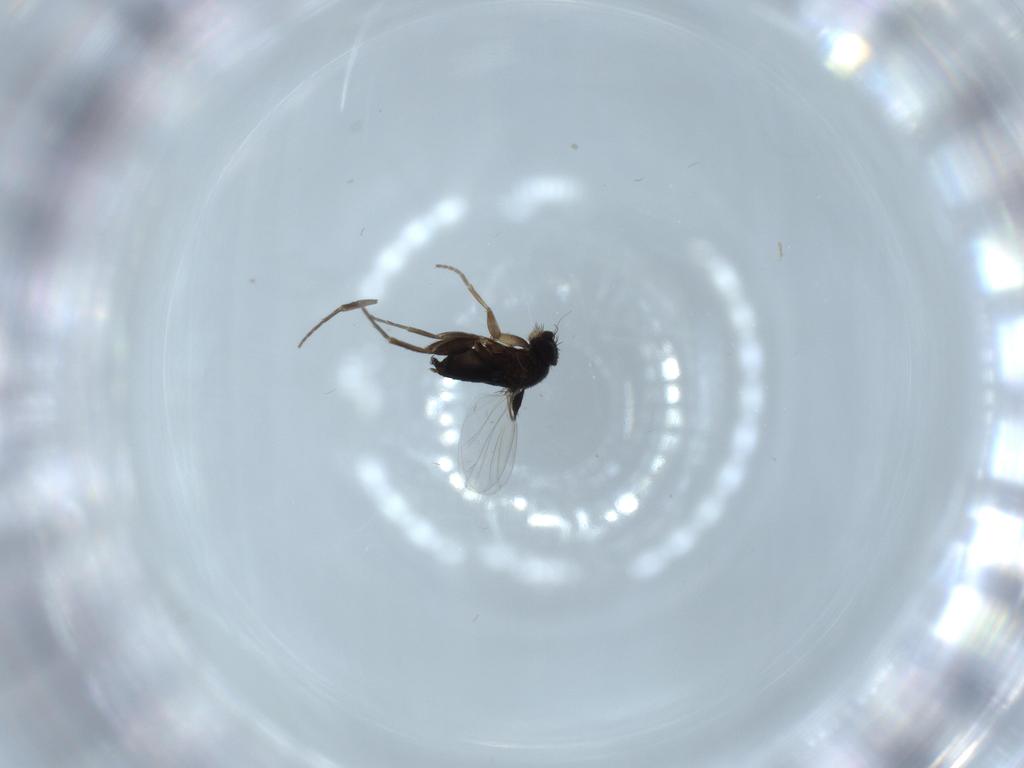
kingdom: Animalia
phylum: Arthropoda
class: Insecta
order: Diptera
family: Phoridae
